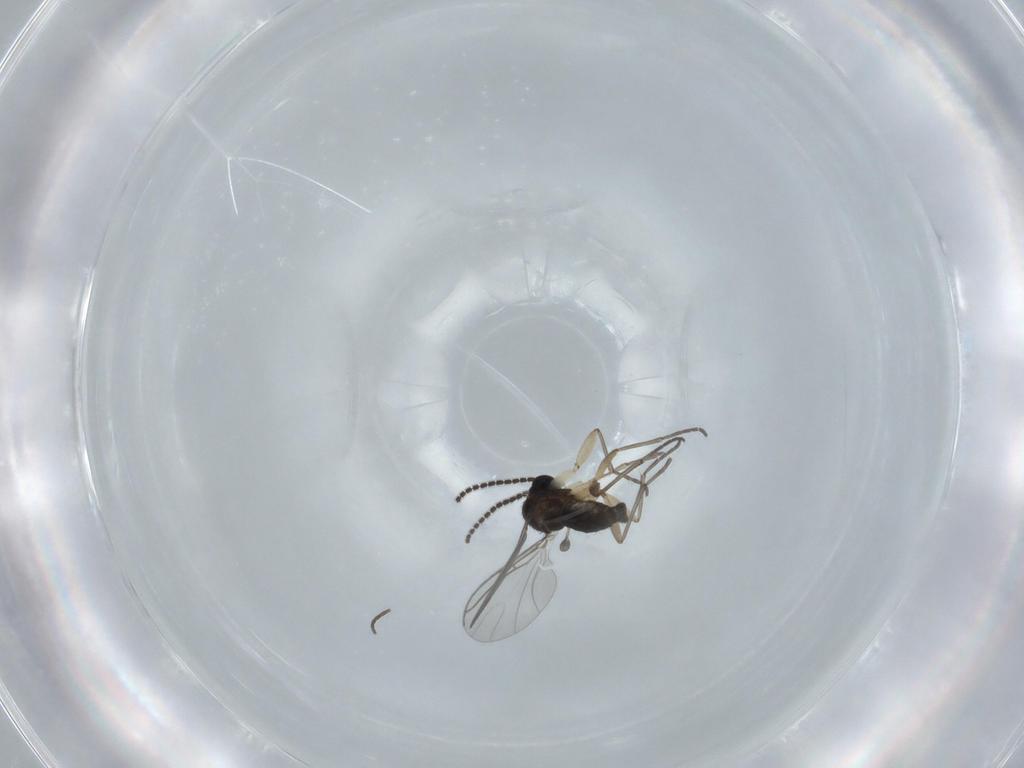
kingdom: Animalia
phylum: Arthropoda
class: Insecta
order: Diptera
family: Sciaridae
